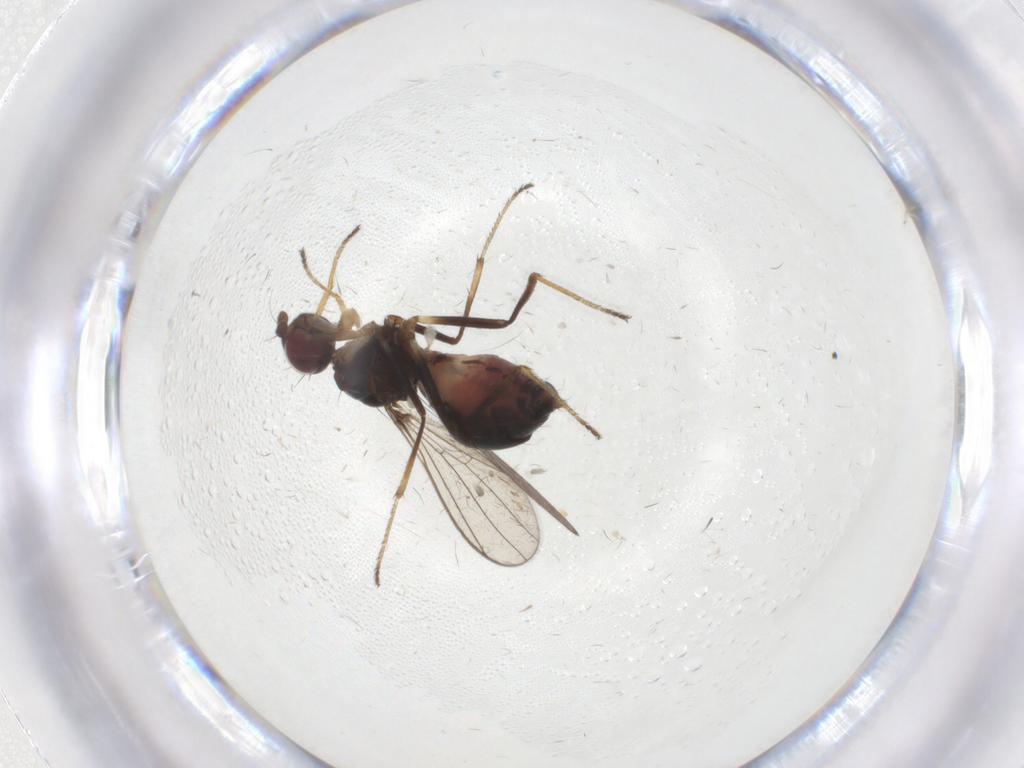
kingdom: Animalia
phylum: Arthropoda
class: Insecta
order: Diptera
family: Sepsidae
